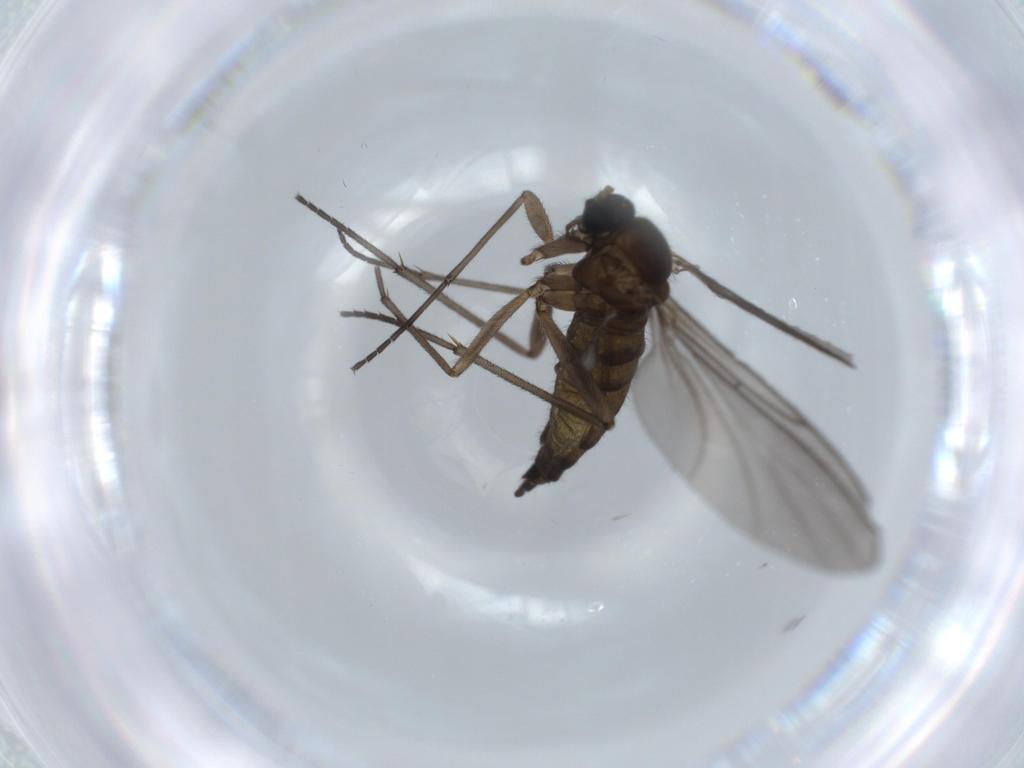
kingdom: Animalia
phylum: Arthropoda
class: Insecta
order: Diptera
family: Sciaridae
